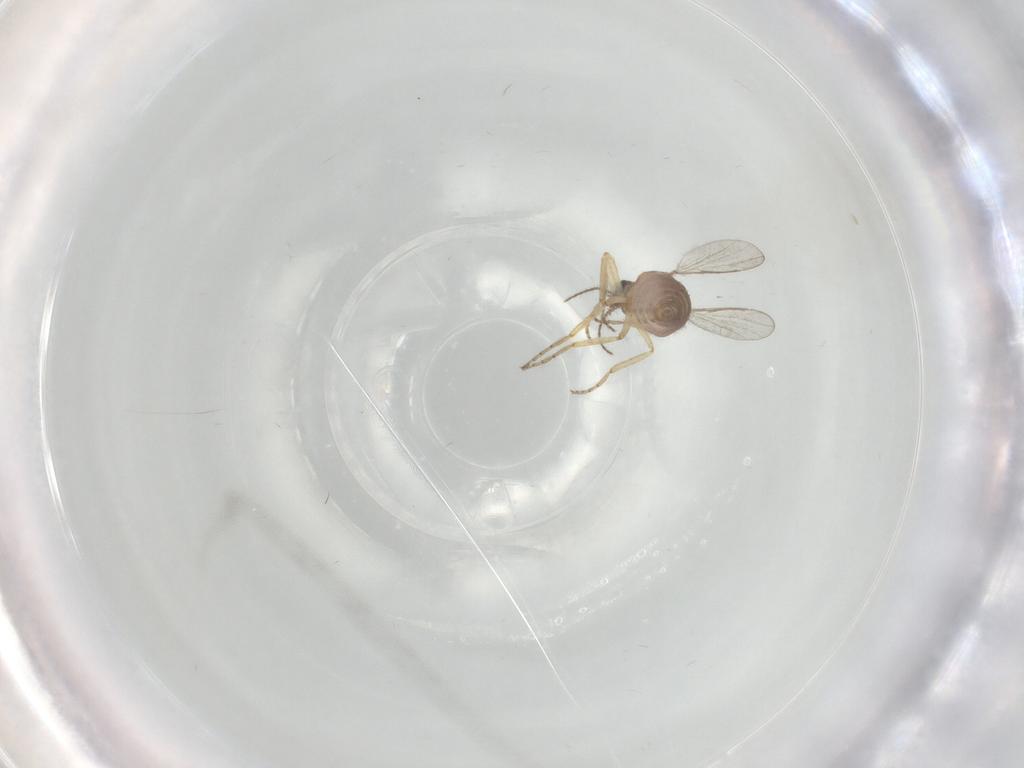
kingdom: Animalia
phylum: Arthropoda
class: Insecta
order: Diptera
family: Ceratopogonidae
